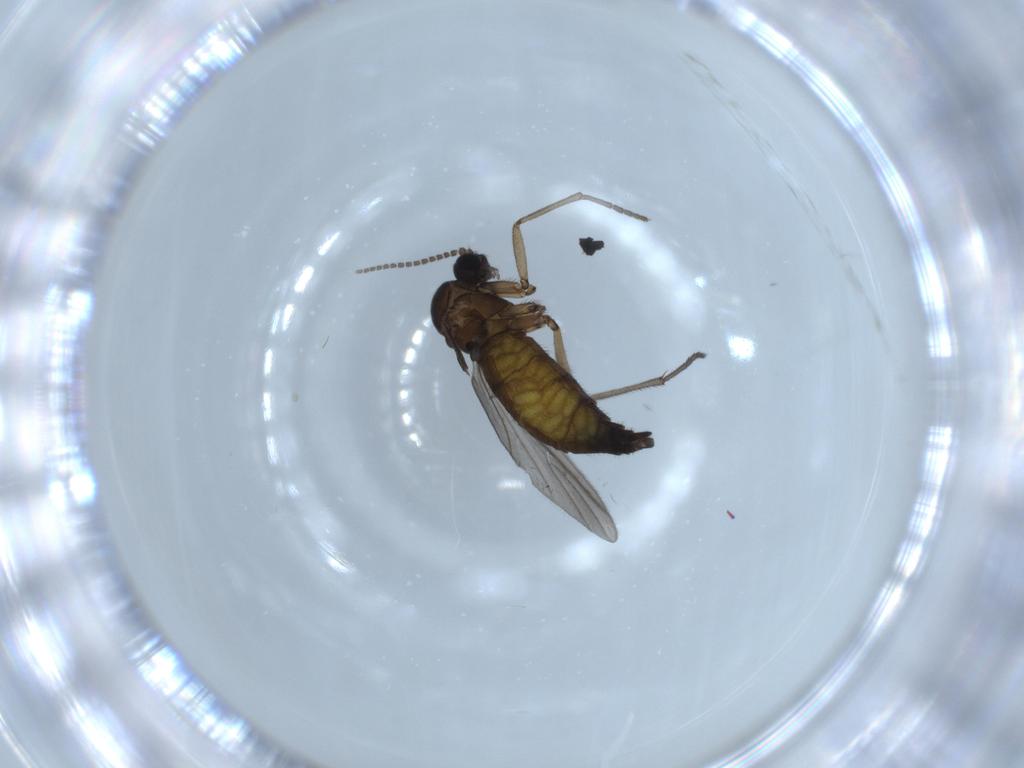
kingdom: Animalia
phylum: Arthropoda
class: Insecta
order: Diptera
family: Sciaridae
